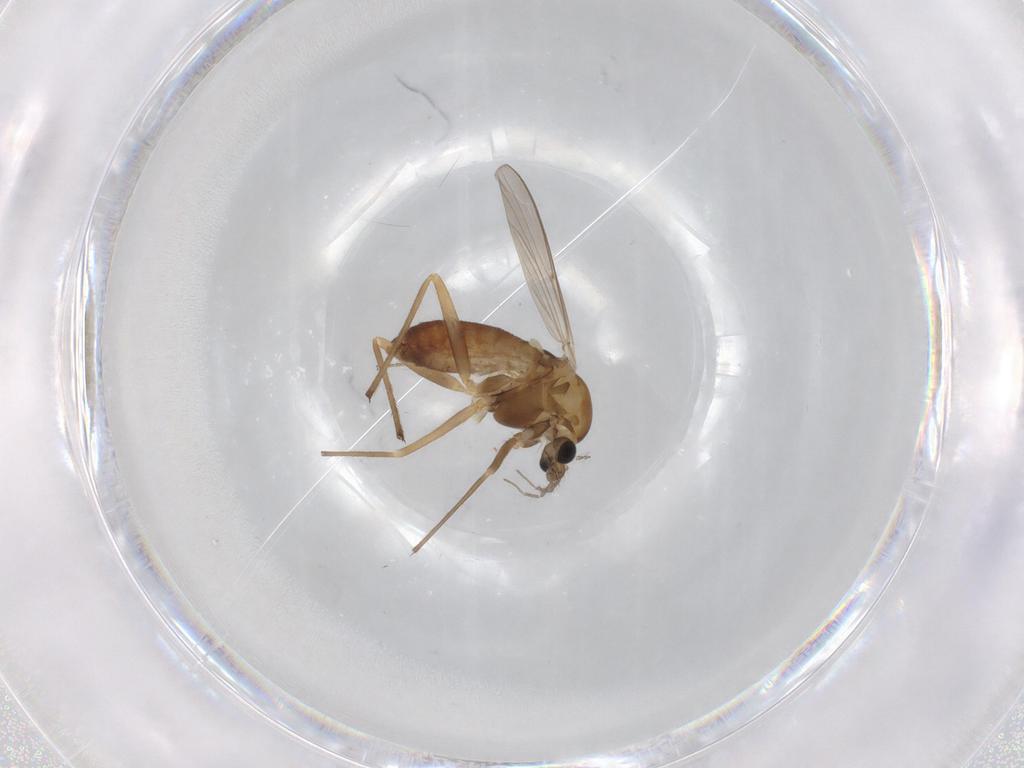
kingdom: Animalia
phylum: Arthropoda
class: Insecta
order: Diptera
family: Chironomidae
